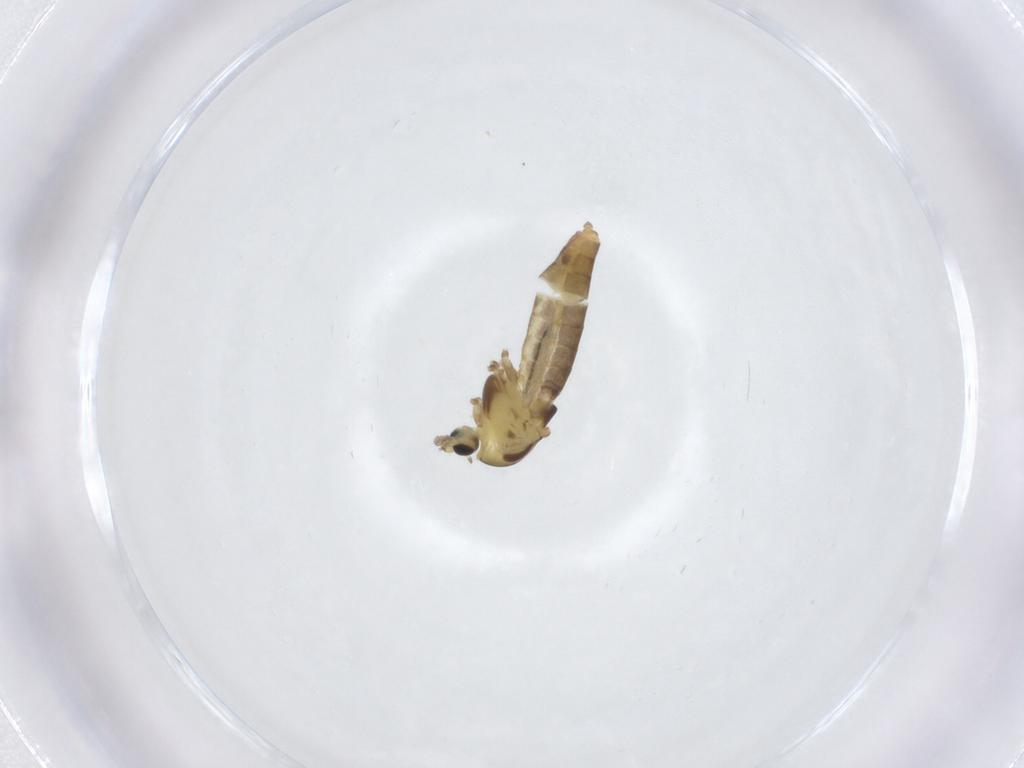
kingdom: Animalia
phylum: Arthropoda
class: Insecta
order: Diptera
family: Chironomidae
